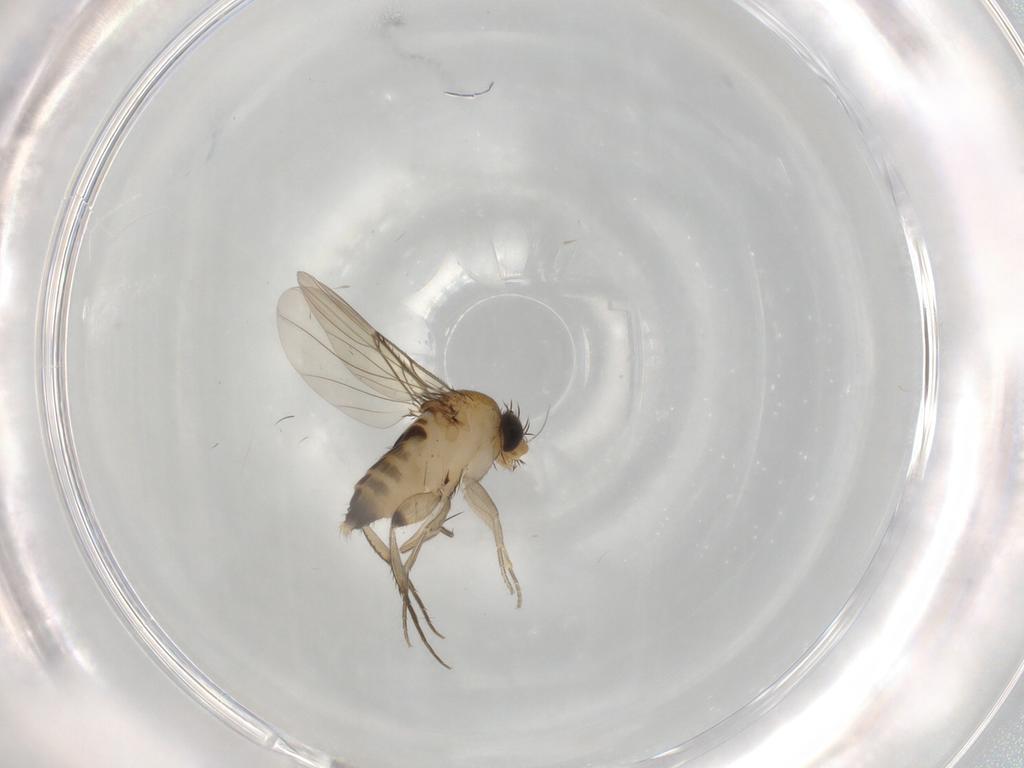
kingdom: Animalia
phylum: Arthropoda
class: Insecta
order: Diptera
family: Phoridae
